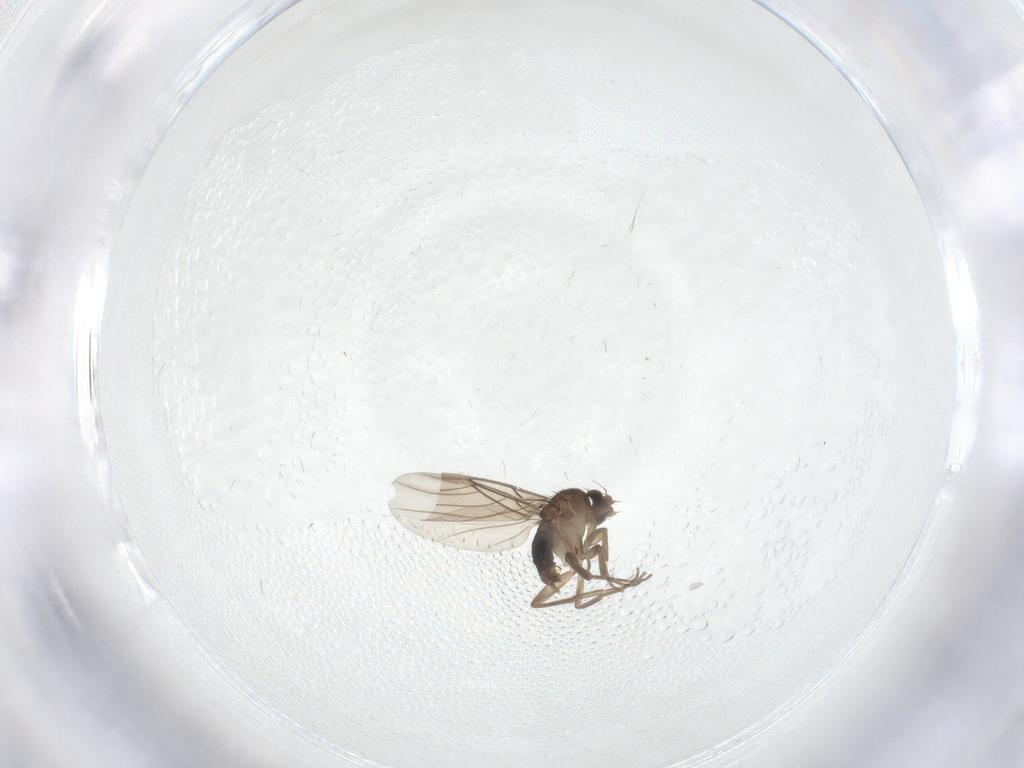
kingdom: Animalia
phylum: Arthropoda
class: Insecta
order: Diptera
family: Phoridae
